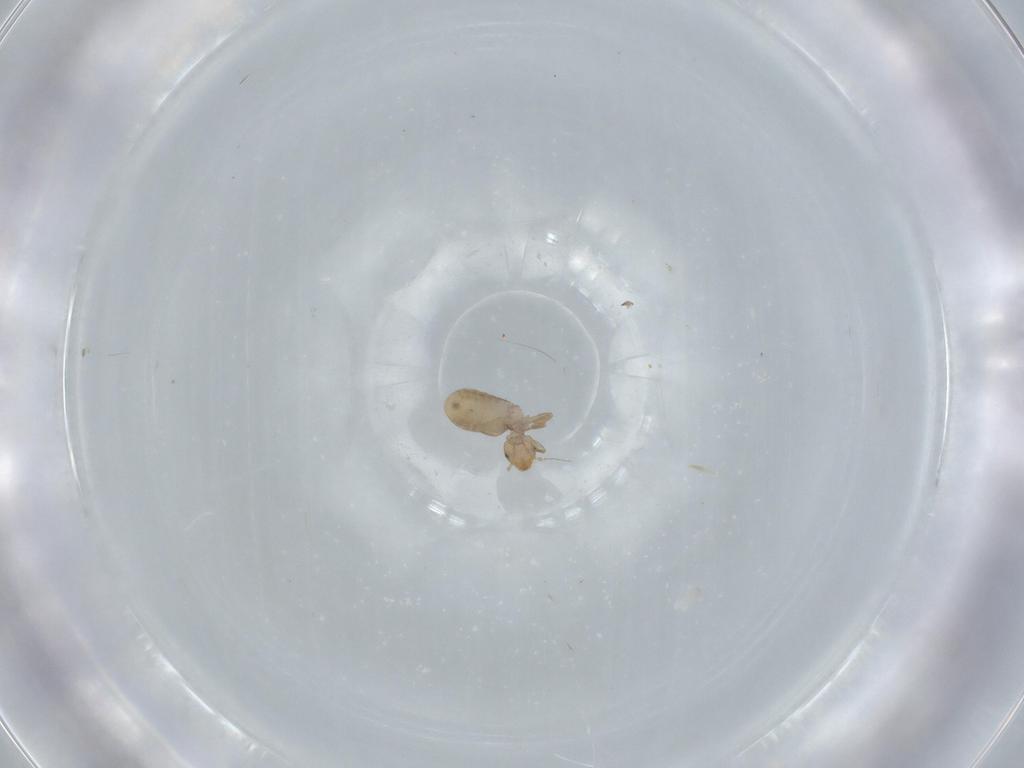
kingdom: Animalia
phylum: Arthropoda
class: Insecta
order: Psocodea
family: Liposcelididae
